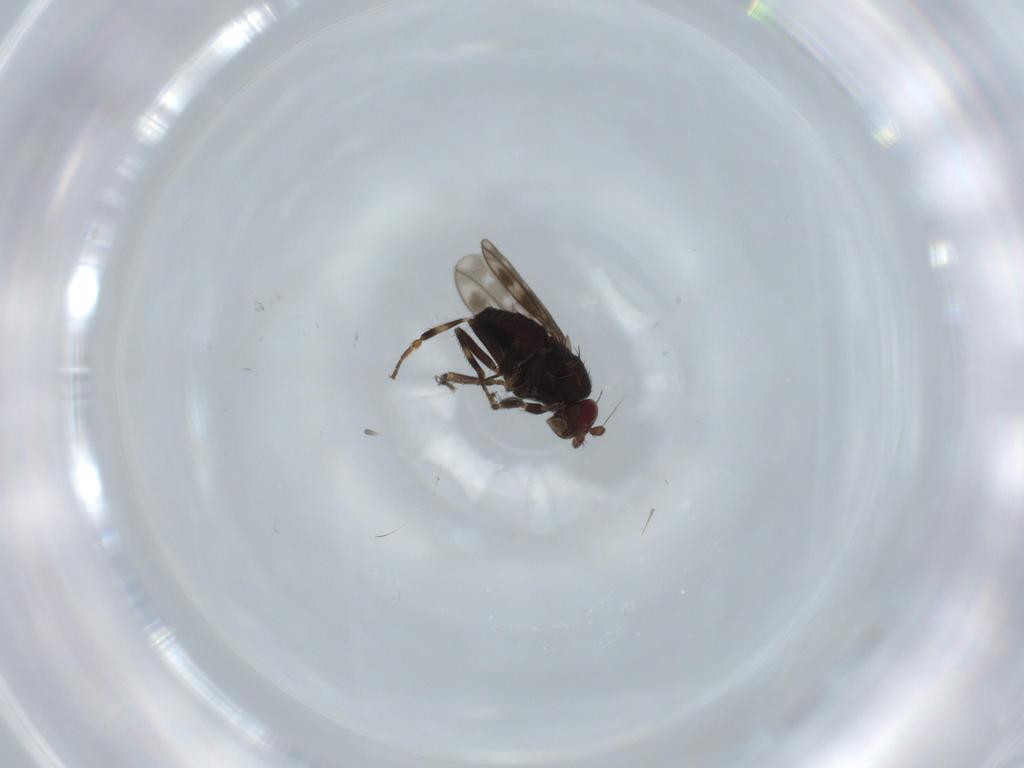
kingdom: Animalia
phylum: Arthropoda
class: Insecta
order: Diptera
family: Sphaeroceridae
